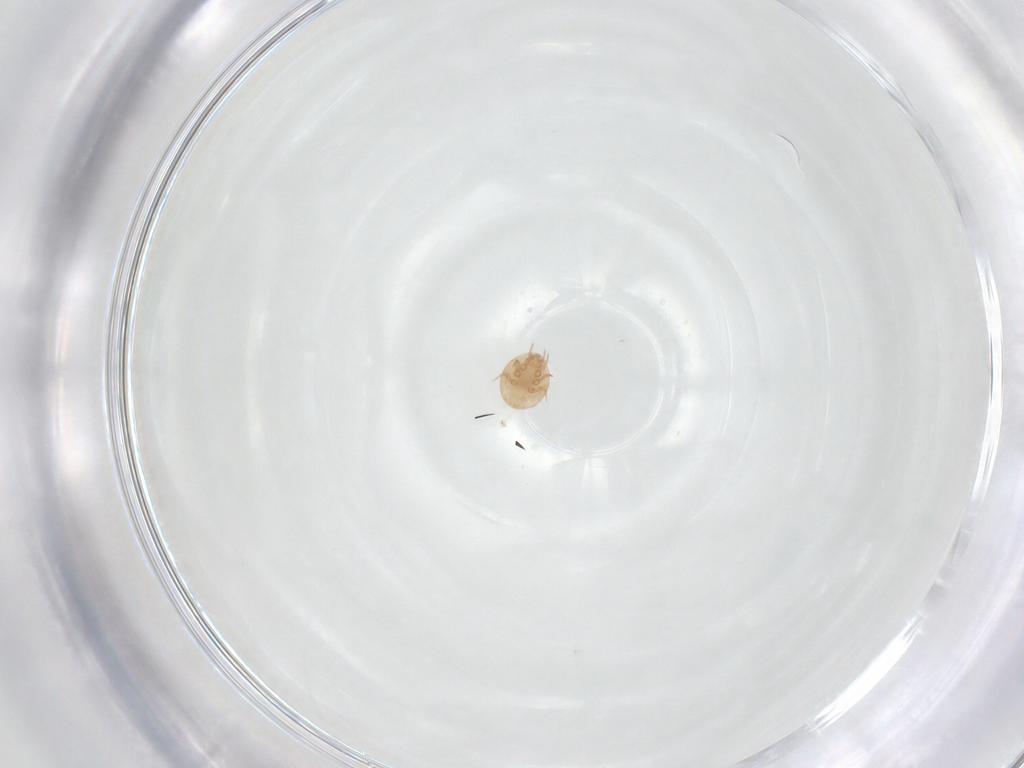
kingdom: Animalia
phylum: Arthropoda
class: Arachnida
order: Mesostigmata
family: Trematuridae
